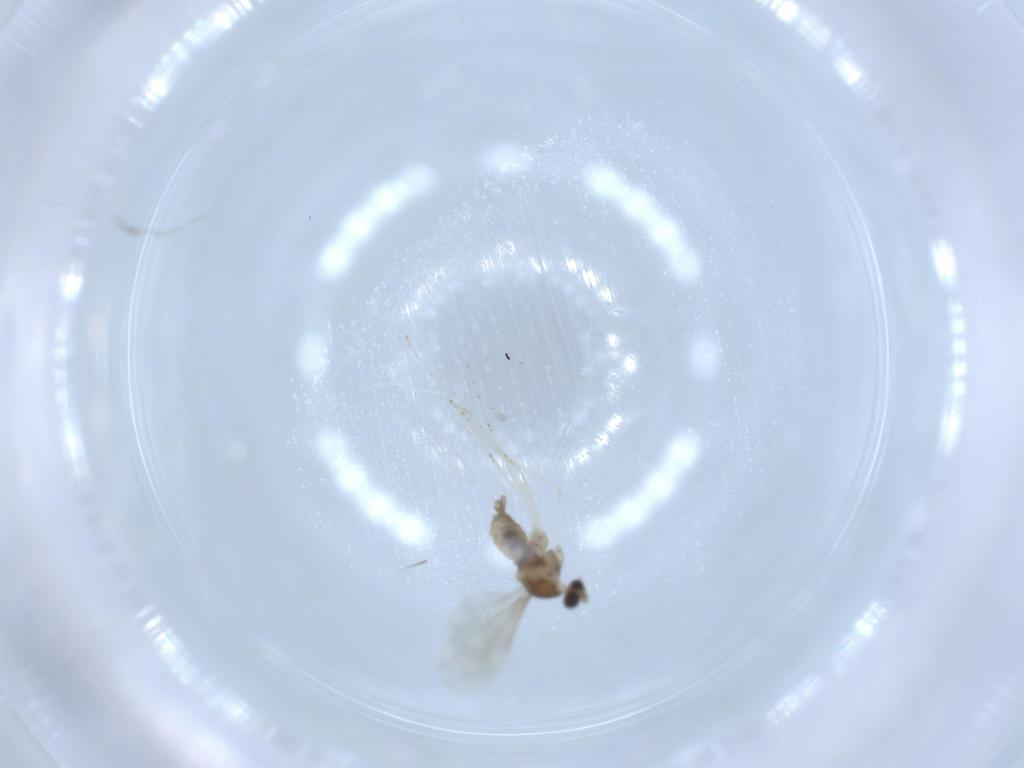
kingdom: Animalia
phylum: Arthropoda
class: Insecta
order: Diptera
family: Cecidomyiidae
